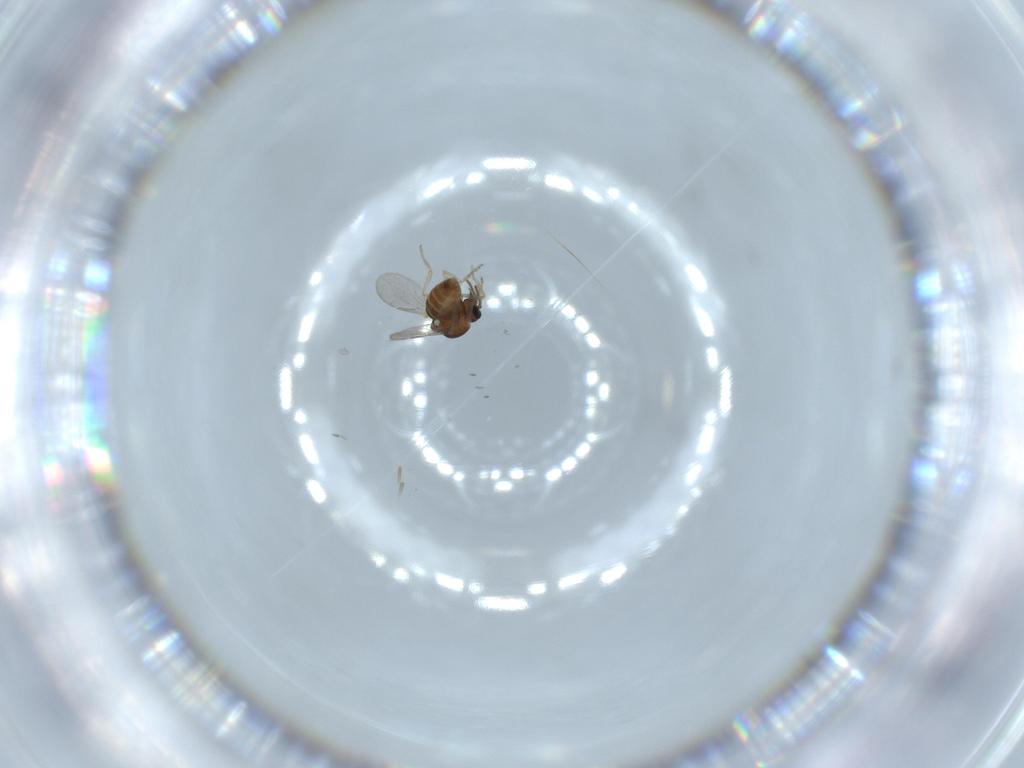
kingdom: Animalia
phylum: Arthropoda
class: Insecta
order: Diptera
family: Ceratopogonidae
